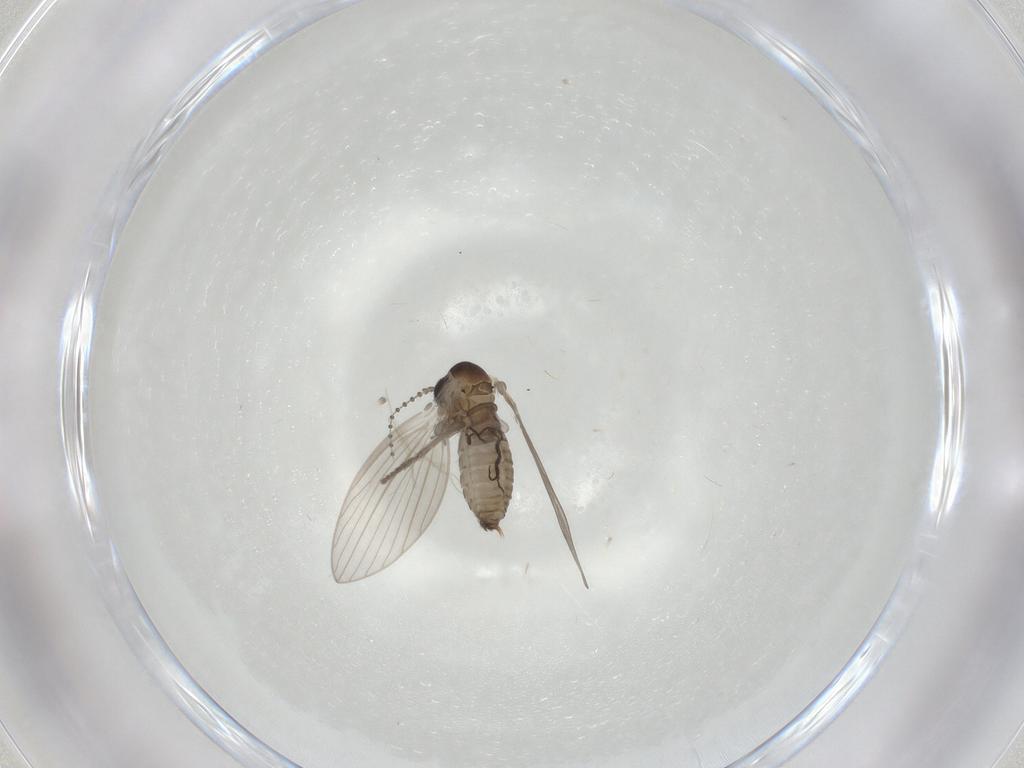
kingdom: Animalia
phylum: Arthropoda
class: Insecta
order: Diptera
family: Psychodidae
